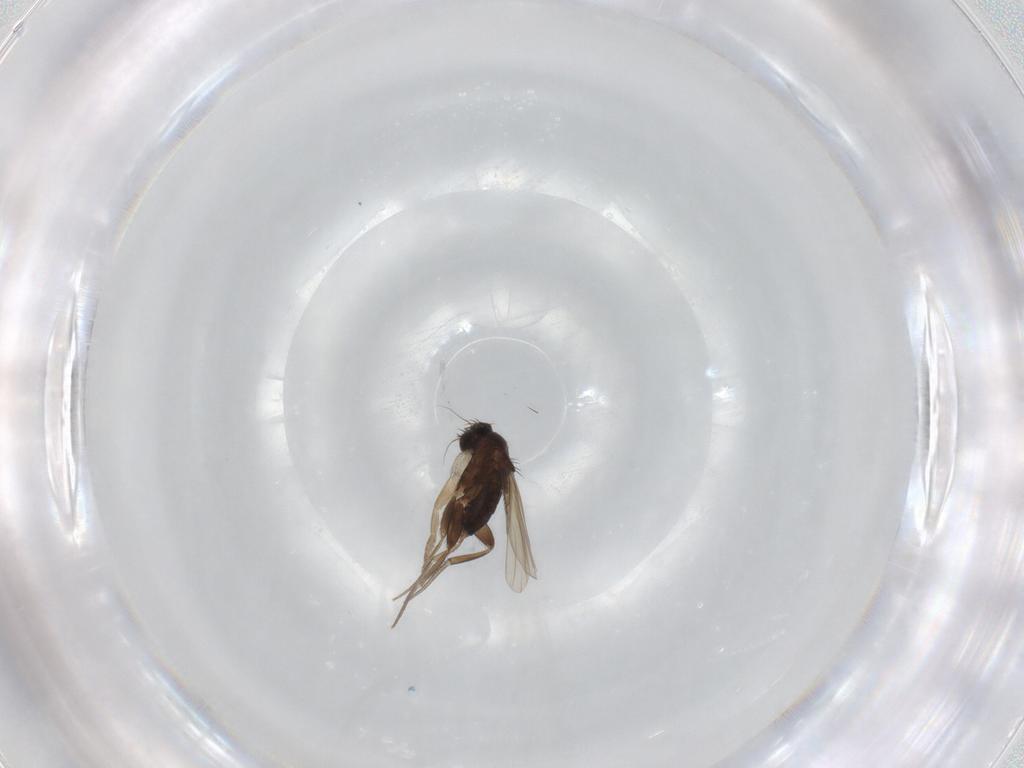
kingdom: Animalia
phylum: Arthropoda
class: Insecta
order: Diptera
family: Phoridae
